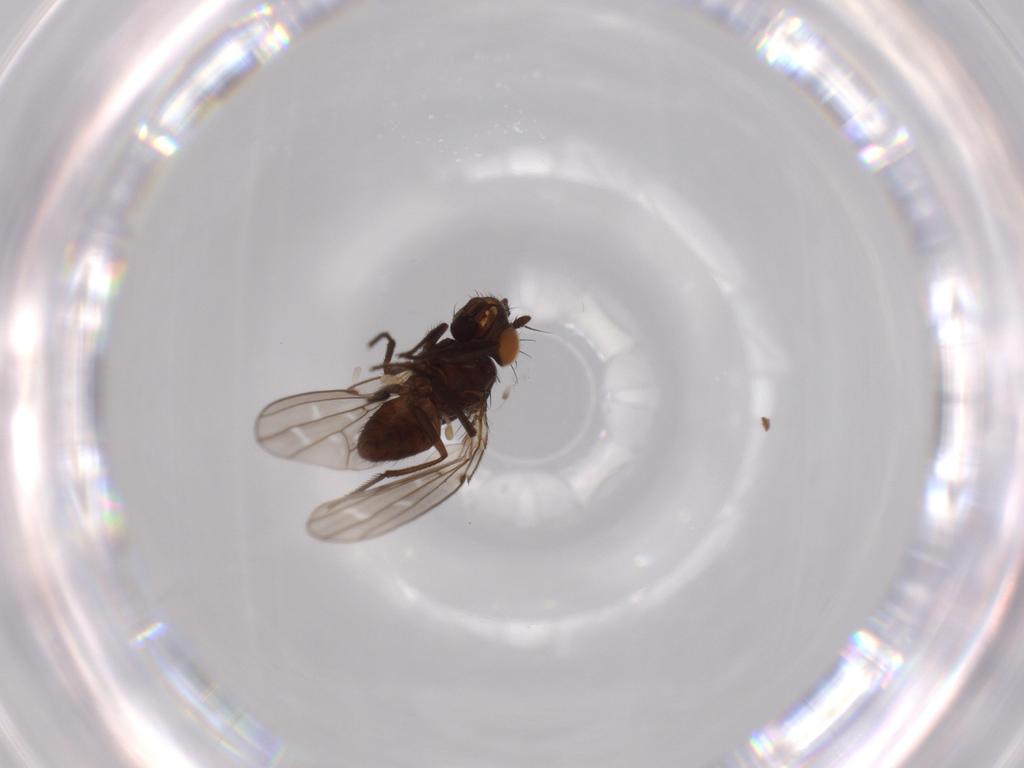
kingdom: Animalia
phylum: Arthropoda
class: Insecta
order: Diptera
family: Ephydridae
